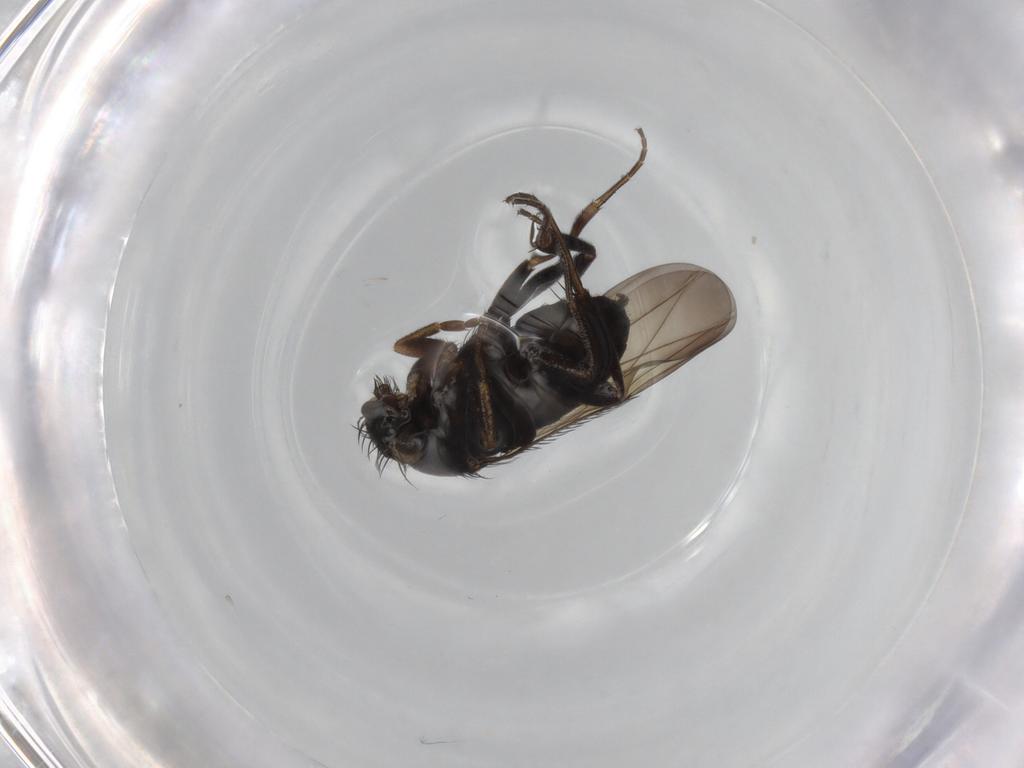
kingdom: Animalia
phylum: Arthropoda
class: Insecta
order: Diptera
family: Phoridae
